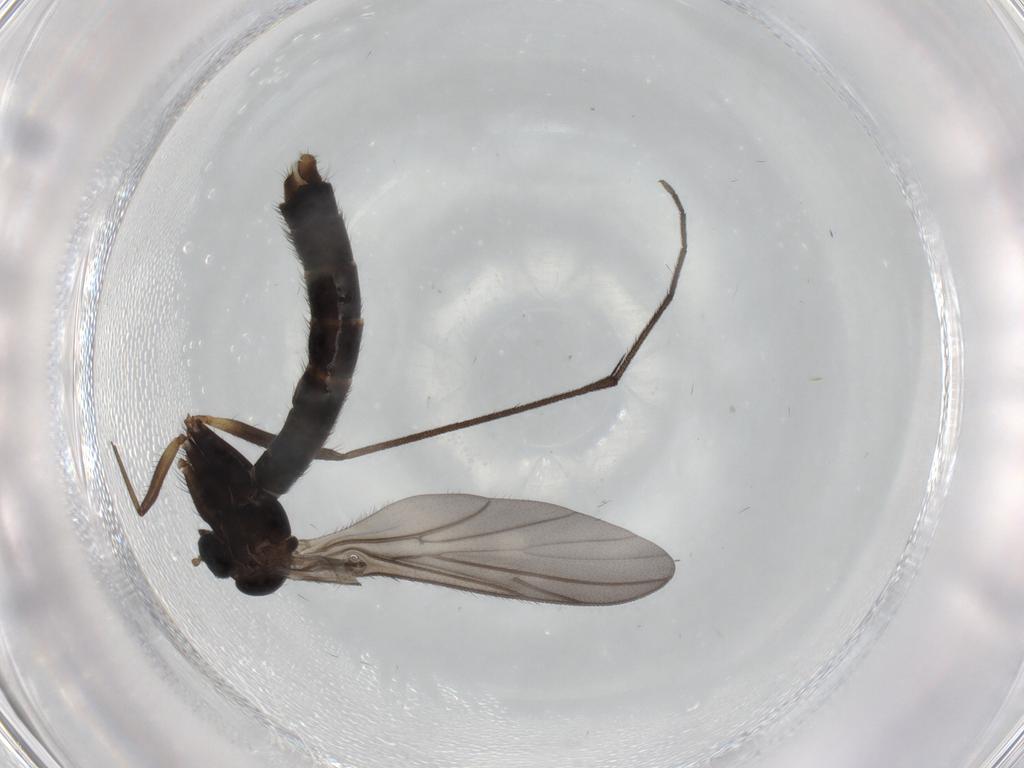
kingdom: Animalia
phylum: Arthropoda
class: Insecta
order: Diptera
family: Ditomyiidae
